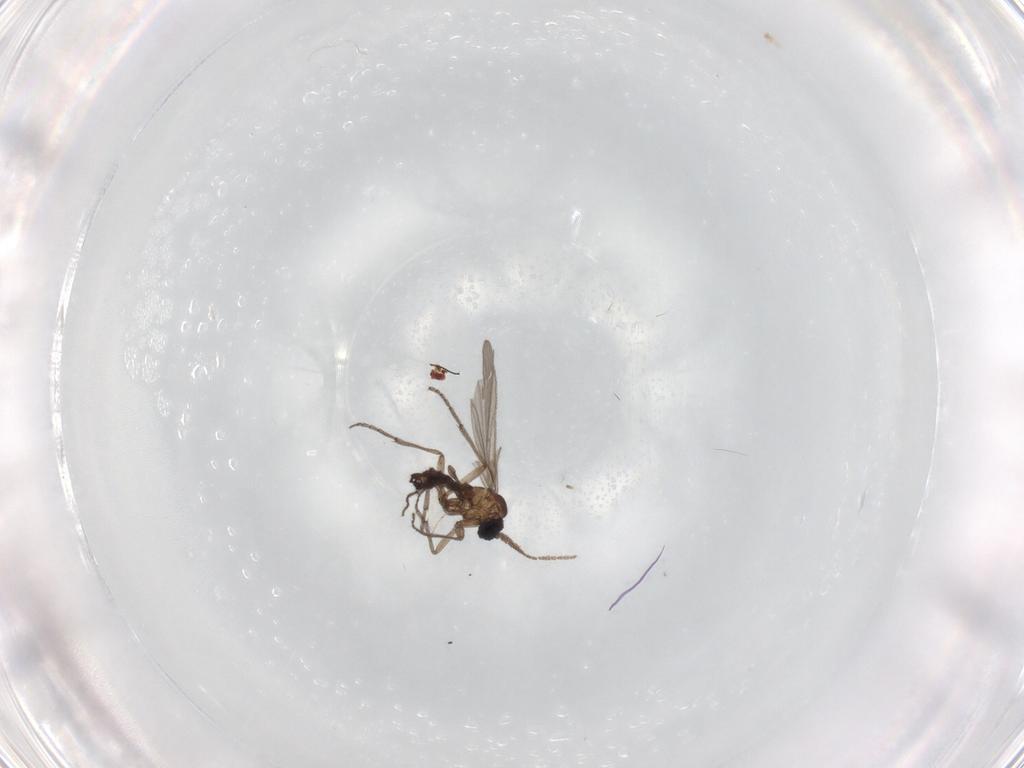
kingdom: Animalia
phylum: Arthropoda
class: Insecta
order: Diptera
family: Sciaridae
